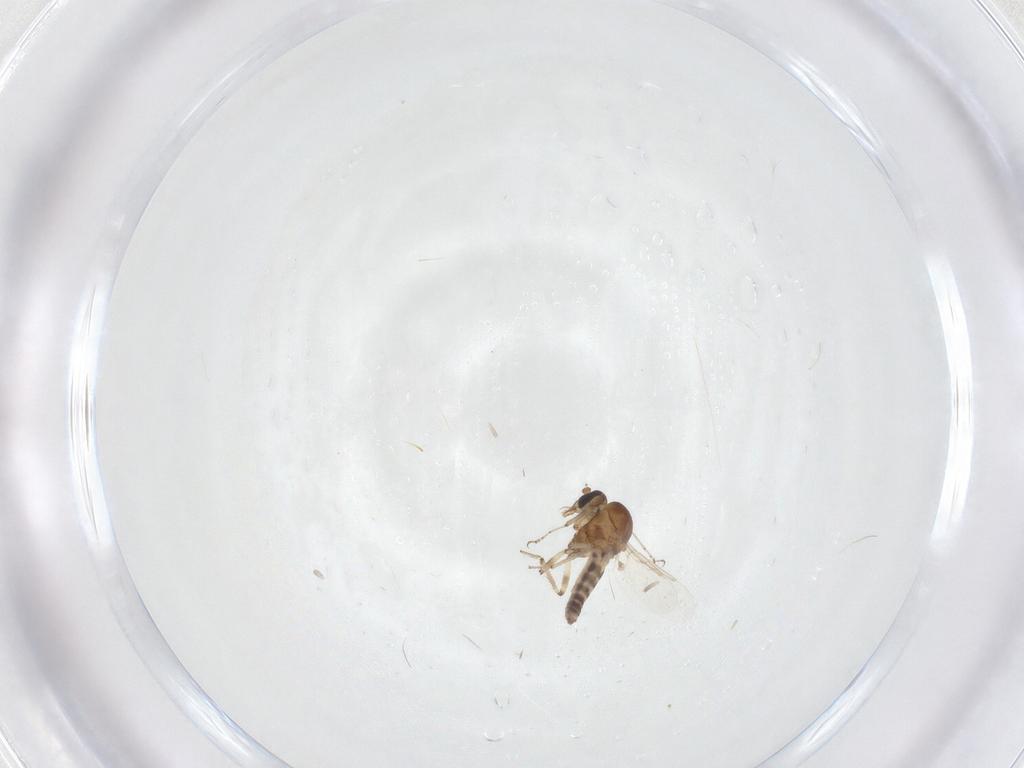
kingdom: Animalia
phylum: Arthropoda
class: Insecta
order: Diptera
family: Ceratopogonidae
